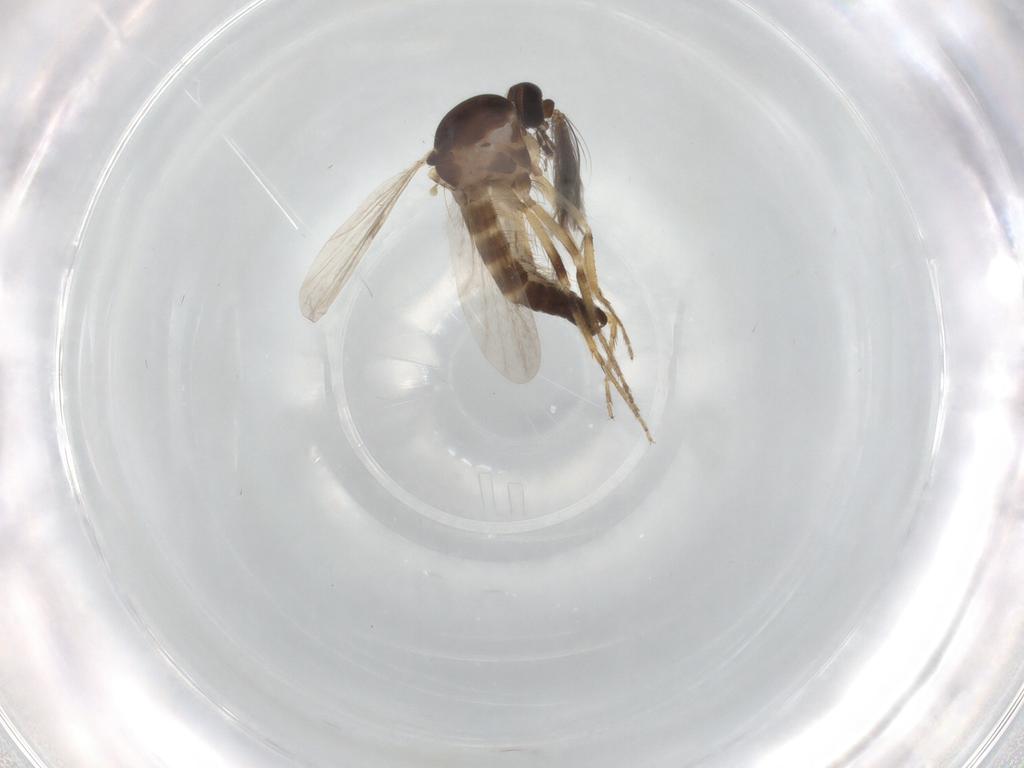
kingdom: Animalia
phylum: Arthropoda
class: Insecta
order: Diptera
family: Ceratopogonidae
